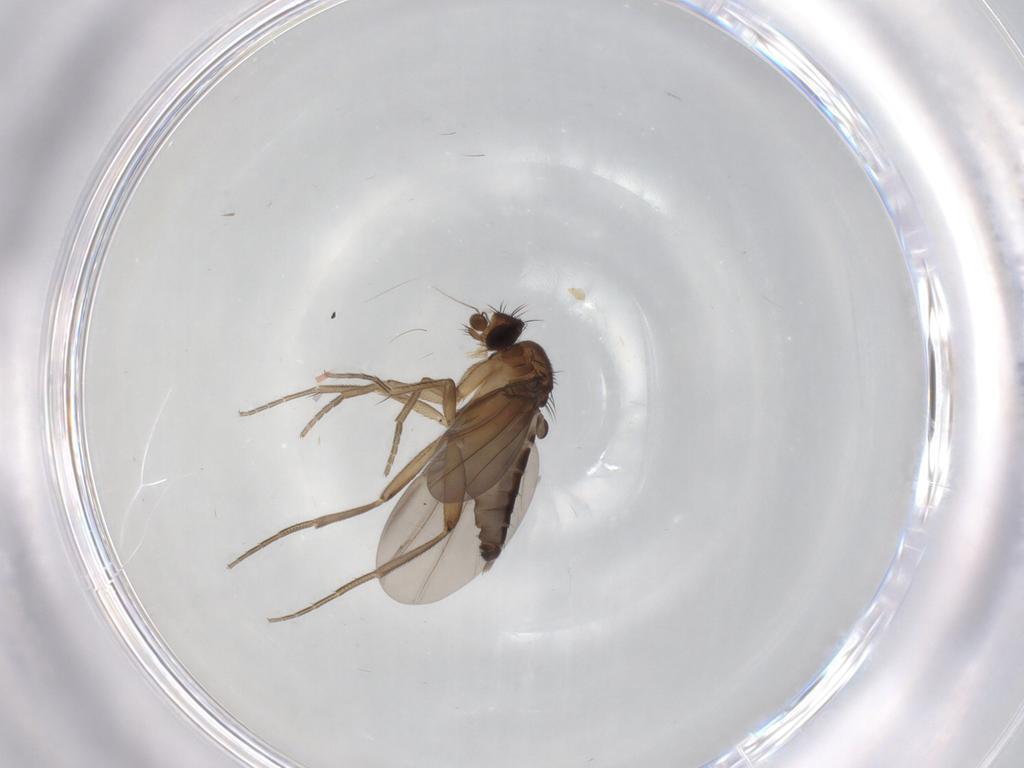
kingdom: Animalia
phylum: Arthropoda
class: Insecta
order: Diptera
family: Phoridae
